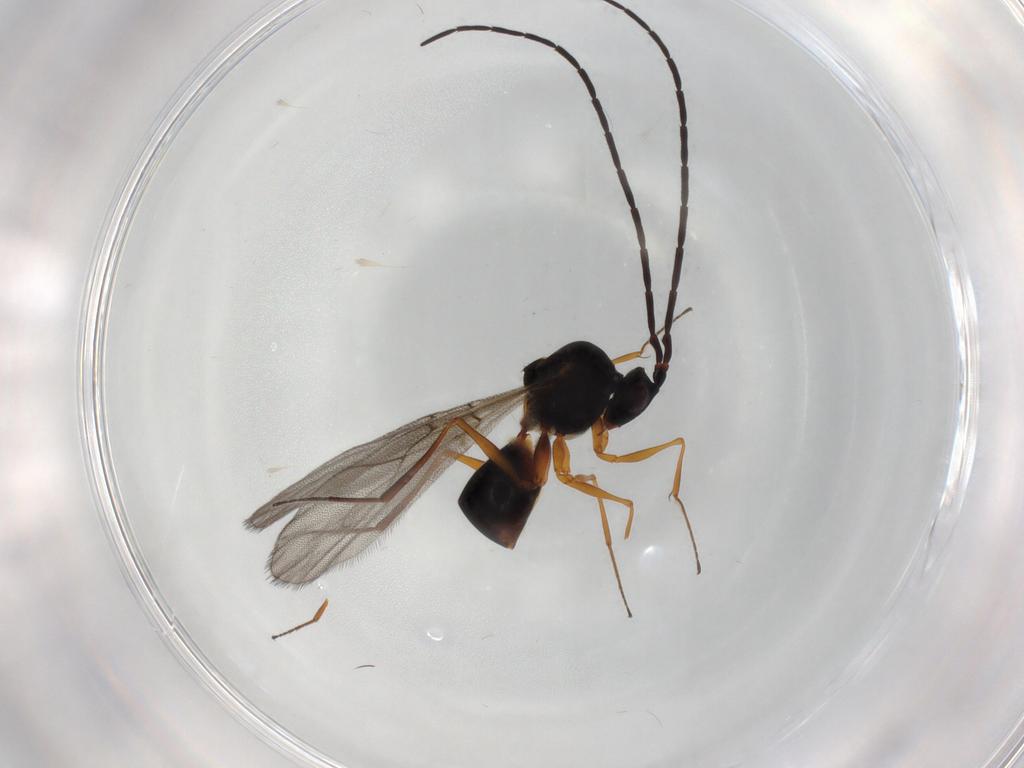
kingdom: Animalia
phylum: Arthropoda
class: Insecta
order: Hymenoptera
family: Figitidae
